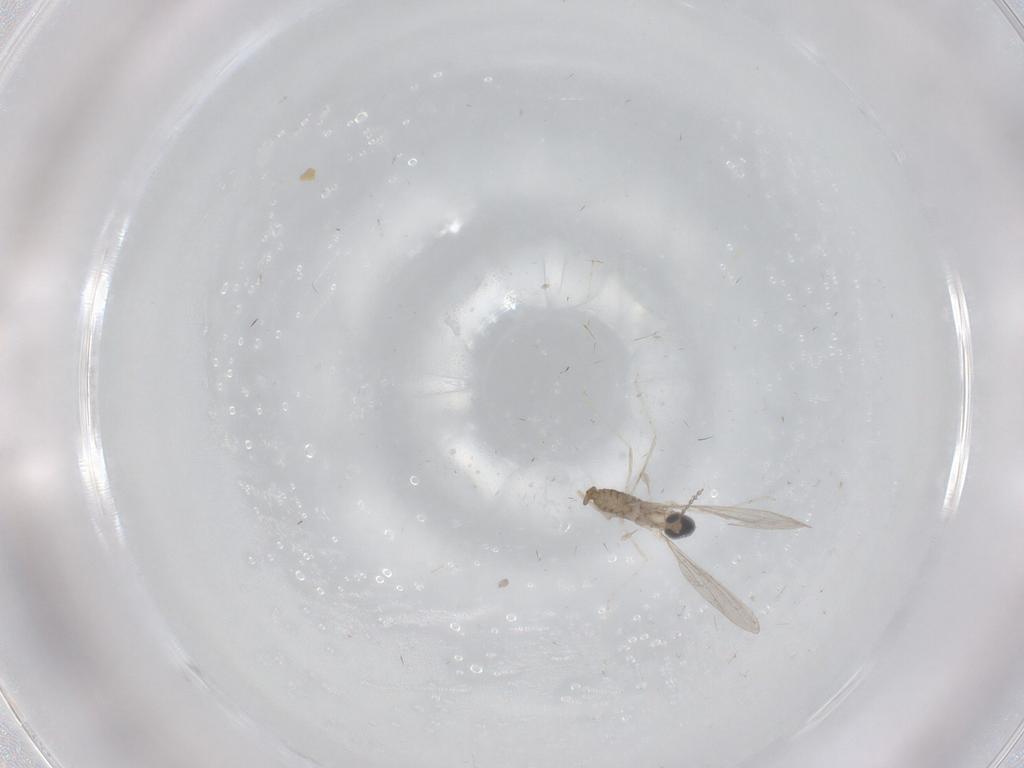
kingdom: Animalia
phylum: Arthropoda
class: Insecta
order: Diptera
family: Cecidomyiidae
